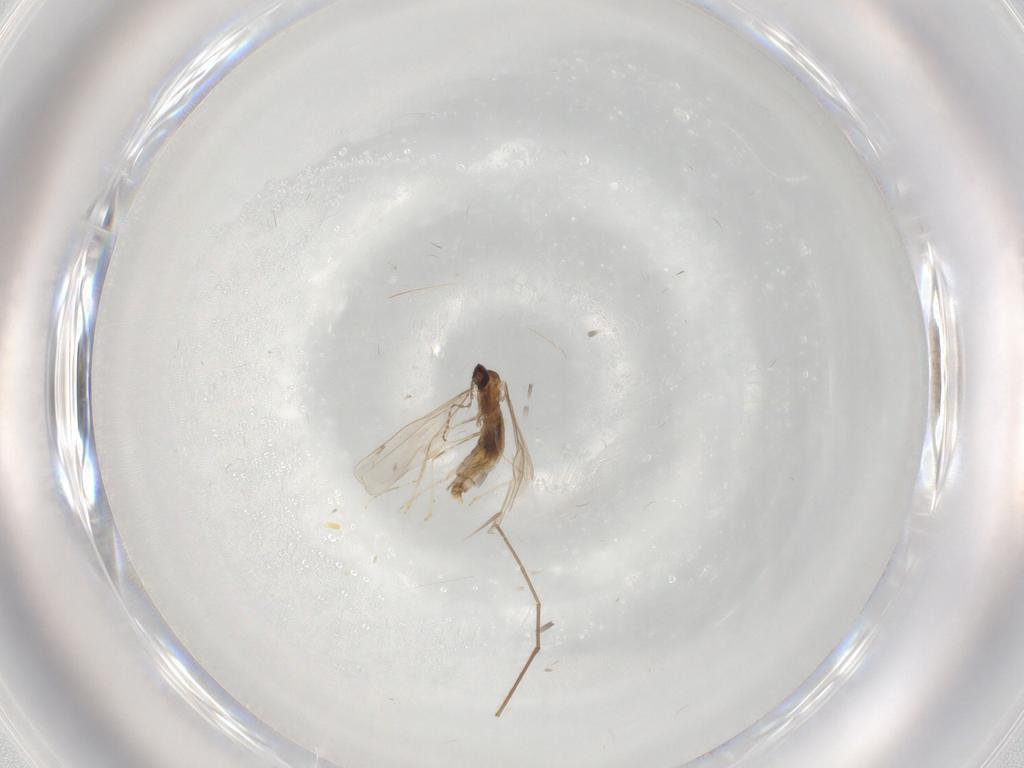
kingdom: Animalia
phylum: Arthropoda
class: Insecta
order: Diptera
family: Cecidomyiidae
